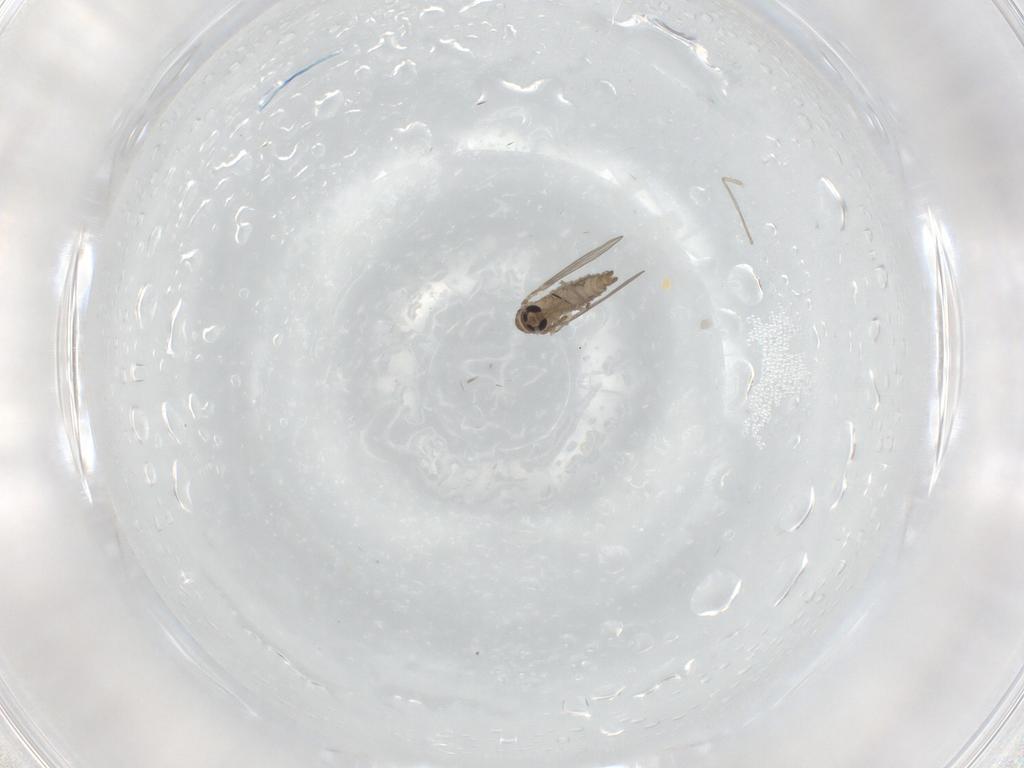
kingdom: Animalia
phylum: Arthropoda
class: Insecta
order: Diptera
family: Psychodidae
